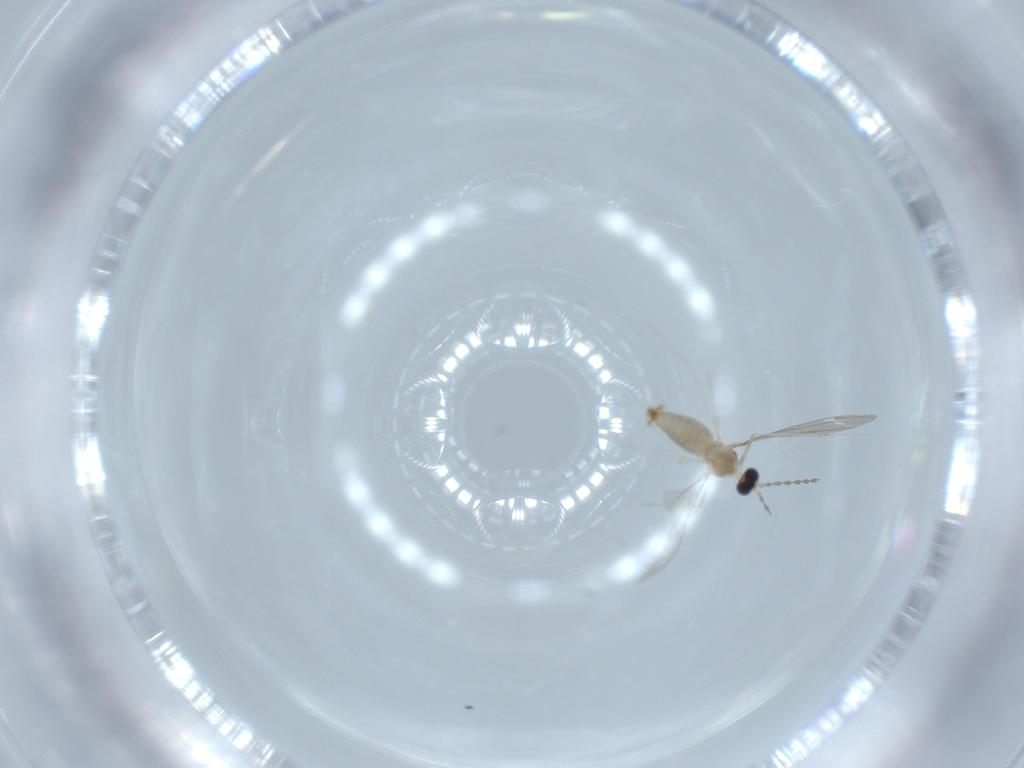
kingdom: Animalia
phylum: Arthropoda
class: Insecta
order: Diptera
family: Cecidomyiidae
